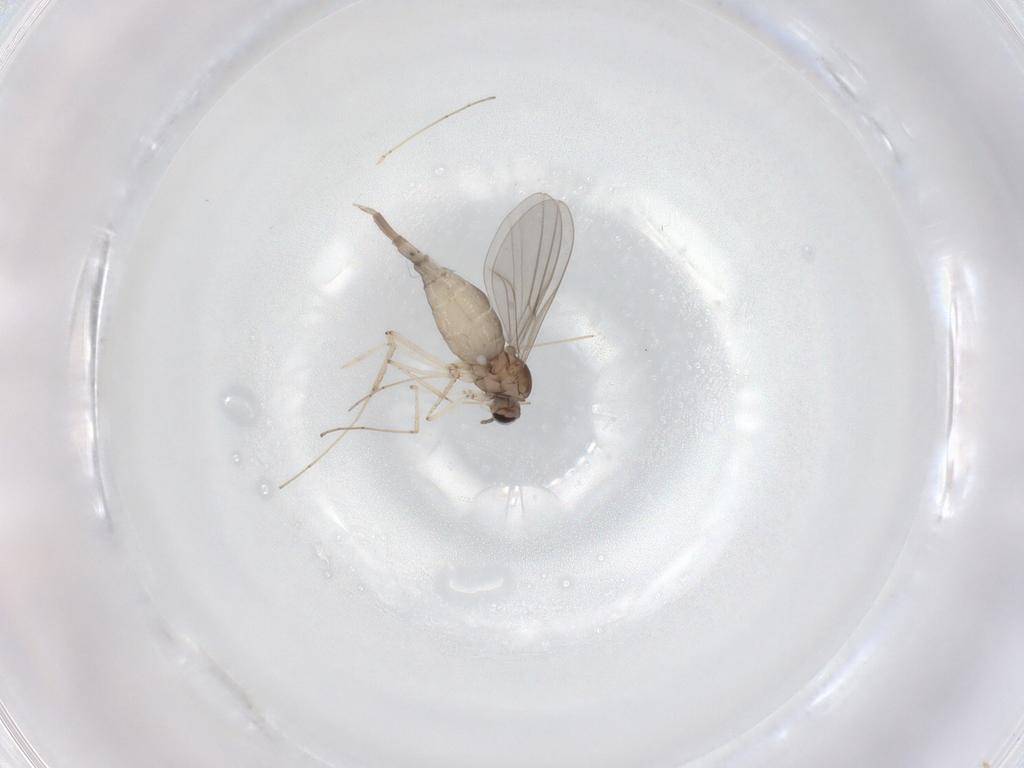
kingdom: Animalia
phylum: Arthropoda
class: Insecta
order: Diptera
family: Cecidomyiidae
